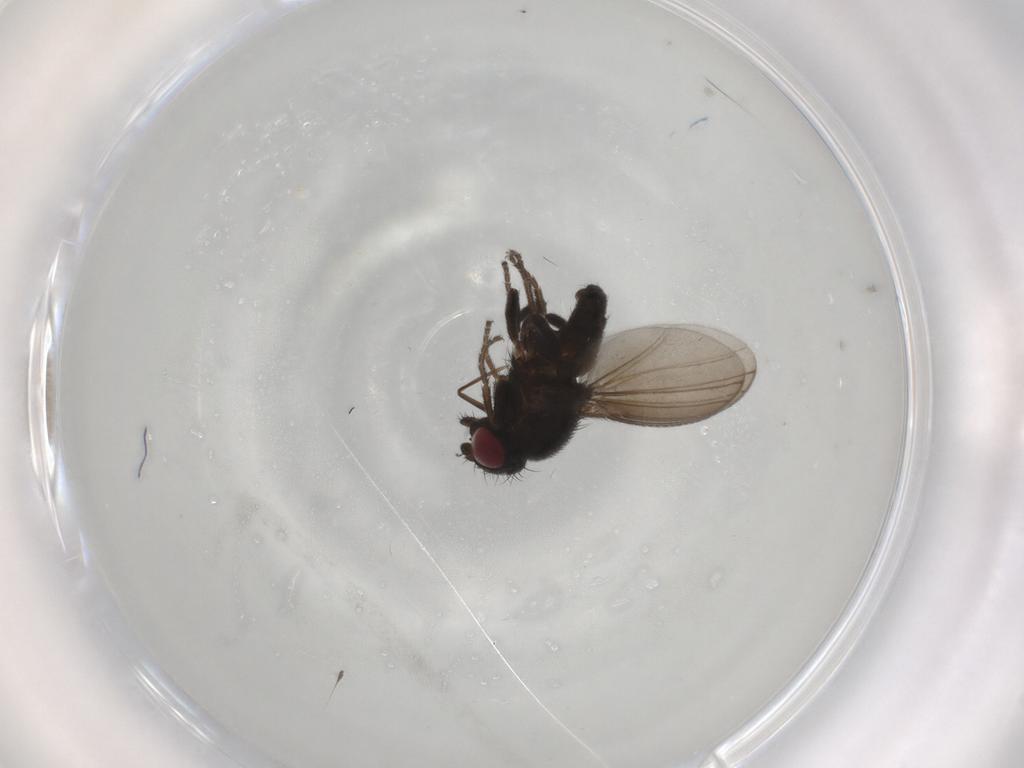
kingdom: Animalia
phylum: Arthropoda
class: Insecta
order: Diptera
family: Milichiidae
